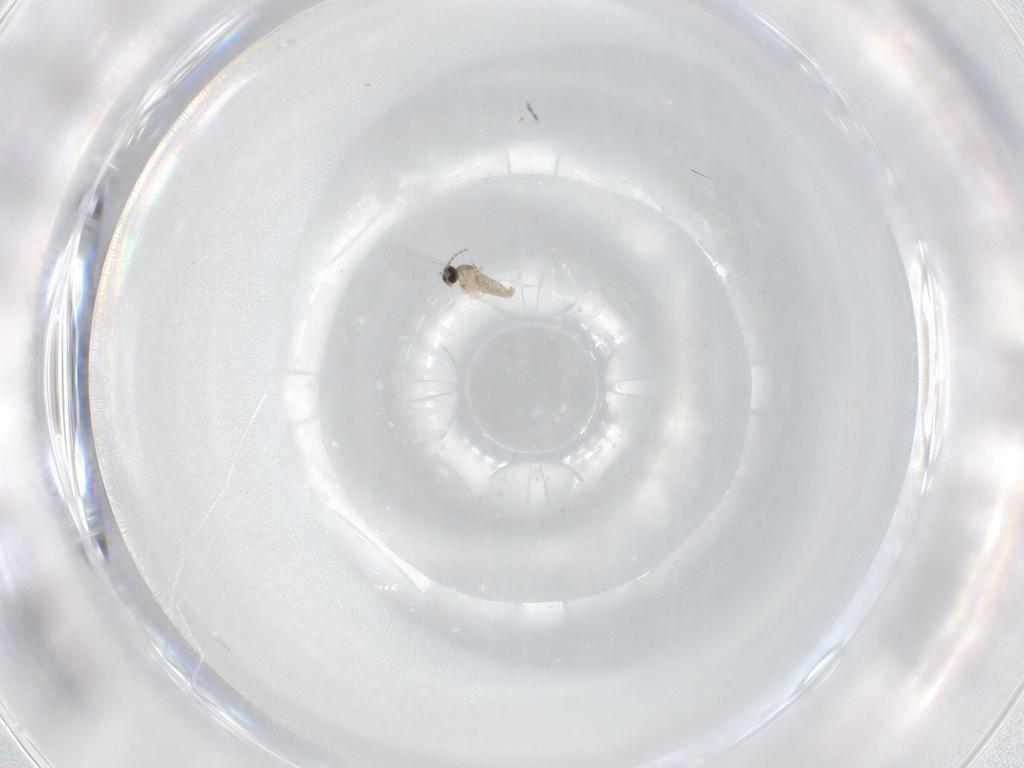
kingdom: Animalia
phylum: Arthropoda
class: Insecta
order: Diptera
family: Cecidomyiidae
